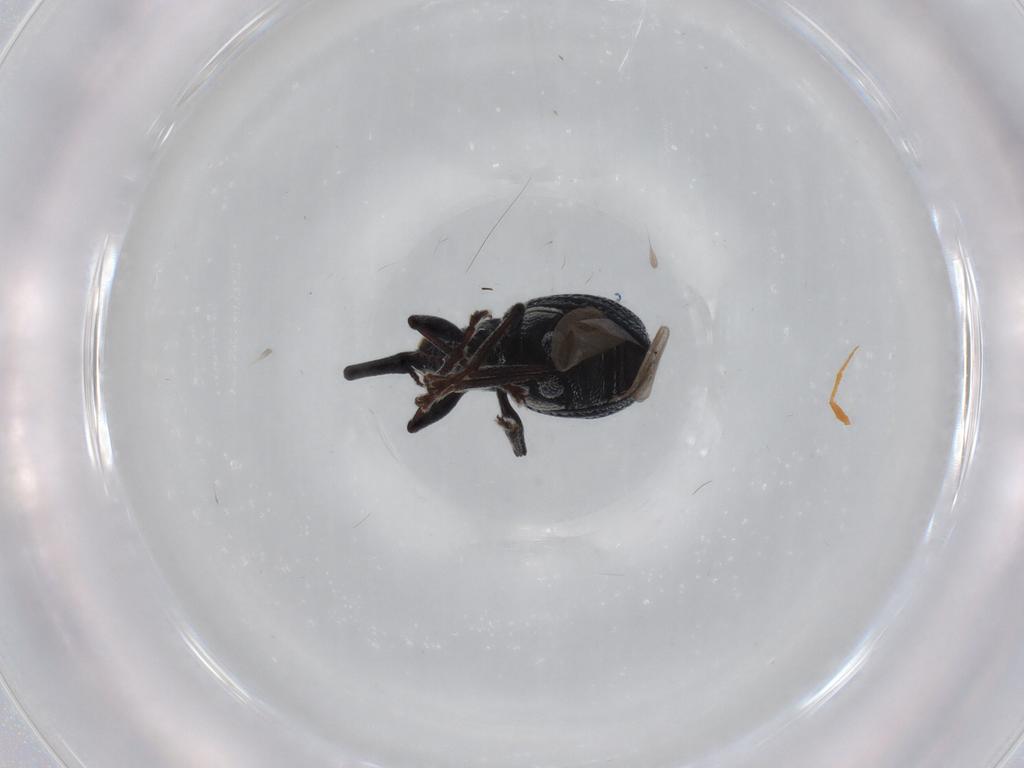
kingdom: Animalia
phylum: Arthropoda
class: Insecta
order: Coleoptera
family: Brentidae
